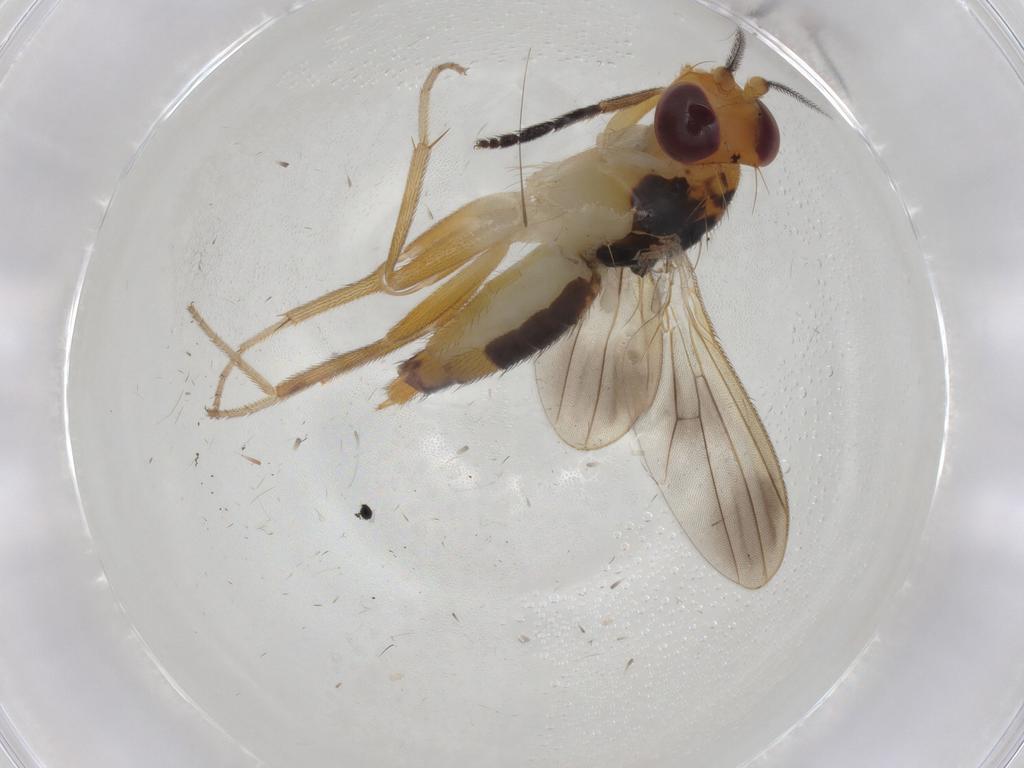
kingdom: Animalia
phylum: Arthropoda
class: Insecta
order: Diptera
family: Clusiidae
